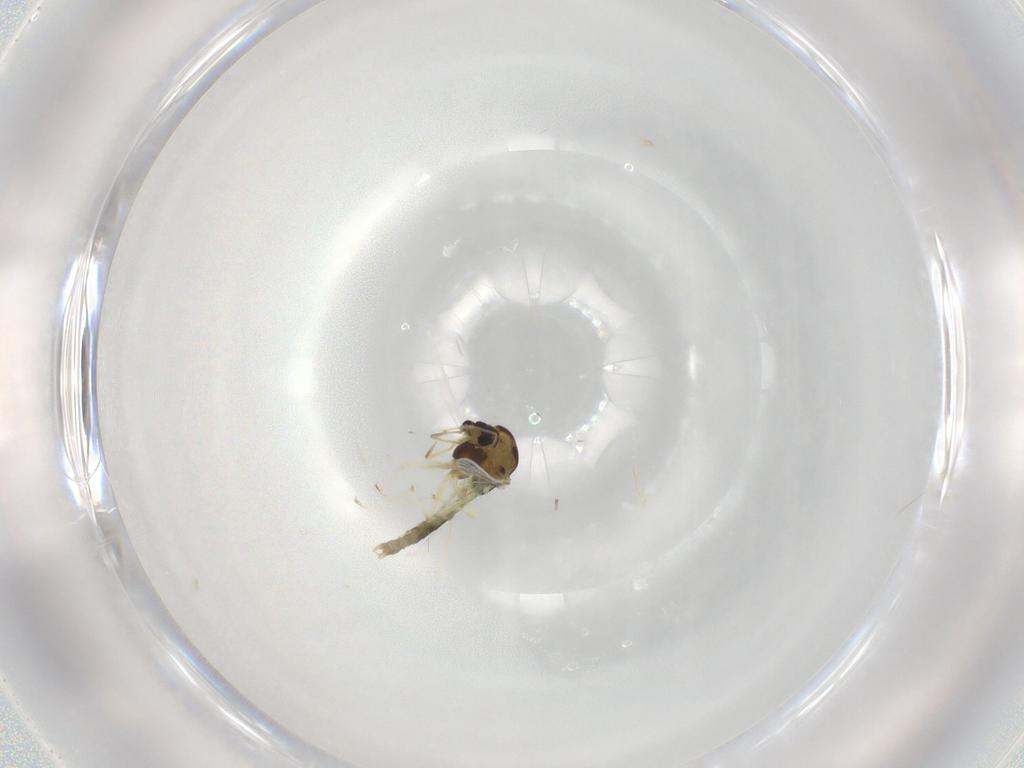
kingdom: Animalia
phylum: Arthropoda
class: Insecta
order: Diptera
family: Chironomidae
